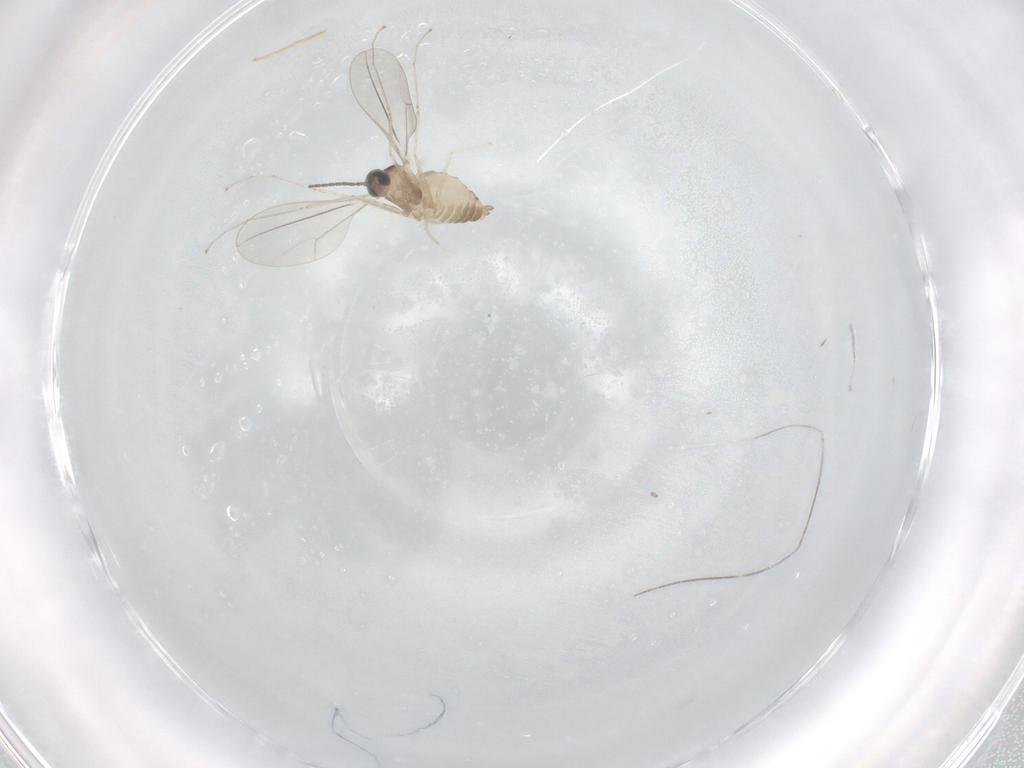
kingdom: Animalia
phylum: Arthropoda
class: Insecta
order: Diptera
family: Cecidomyiidae
